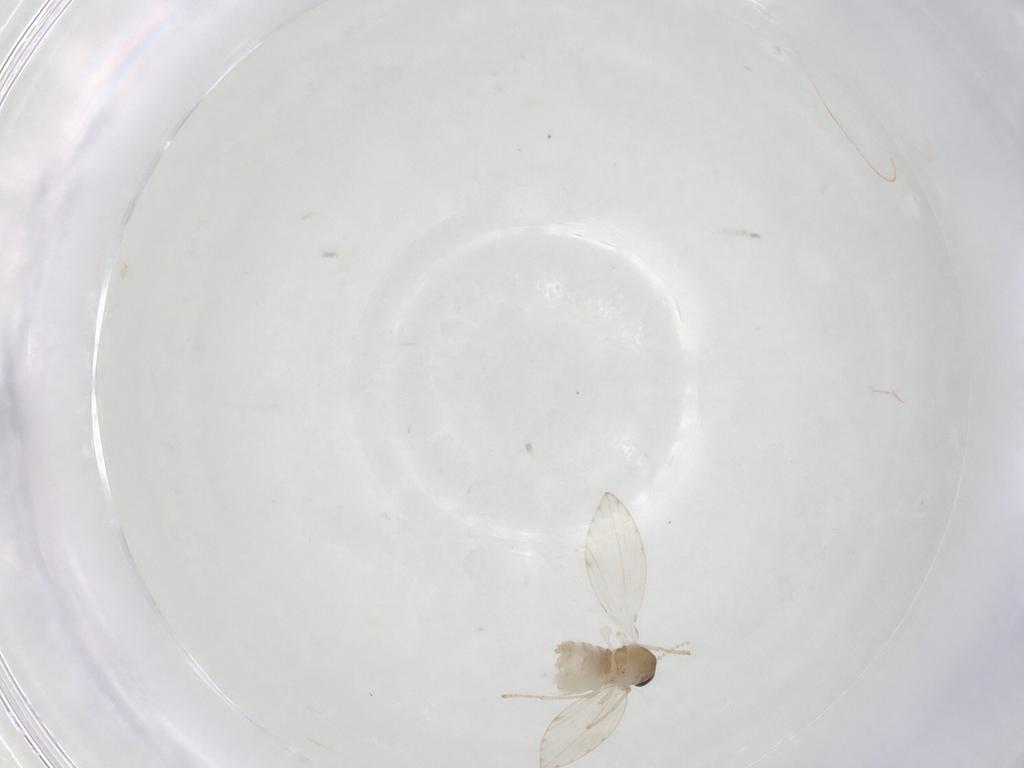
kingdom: Animalia
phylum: Arthropoda
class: Insecta
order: Diptera
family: Psychodidae
